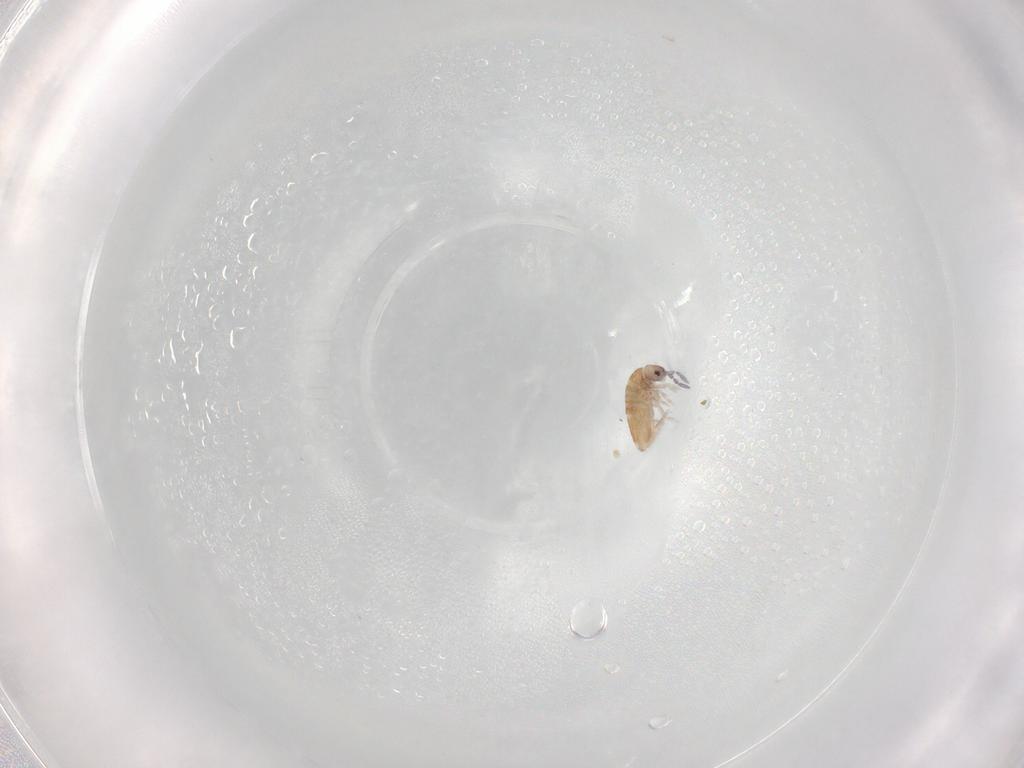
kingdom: Animalia
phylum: Arthropoda
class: Collembola
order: Entomobryomorpha
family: Entomobryidae
